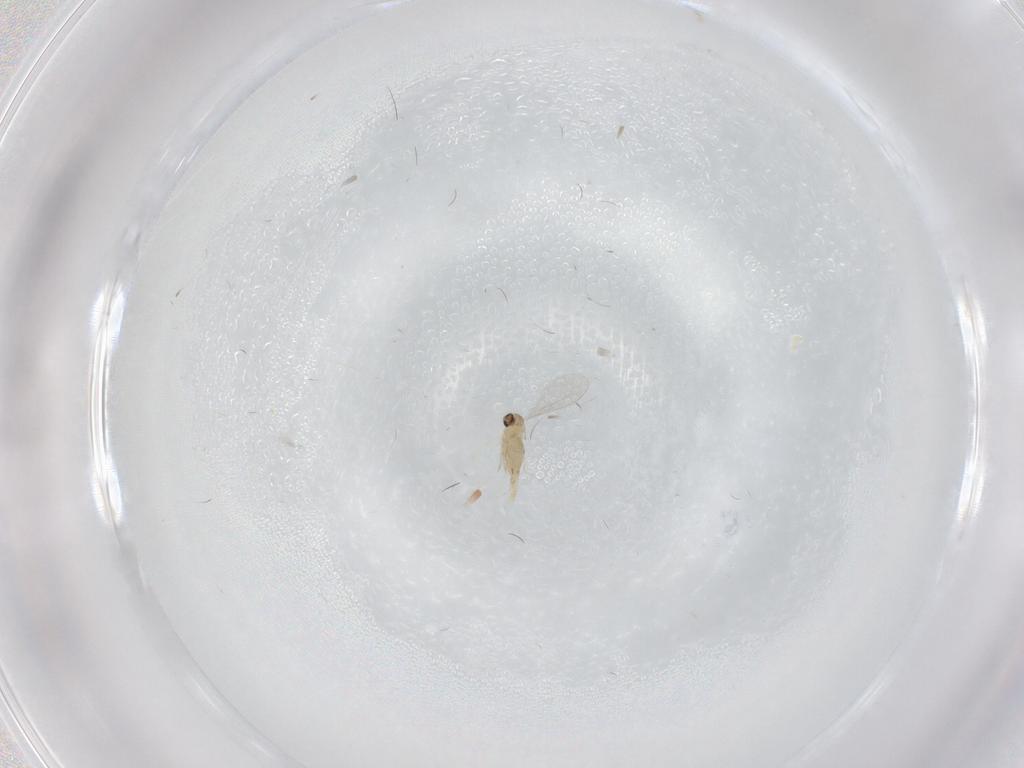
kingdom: Animalia
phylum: Arthropoda
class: Insecta
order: Diptera
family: Cecidomyiidae
